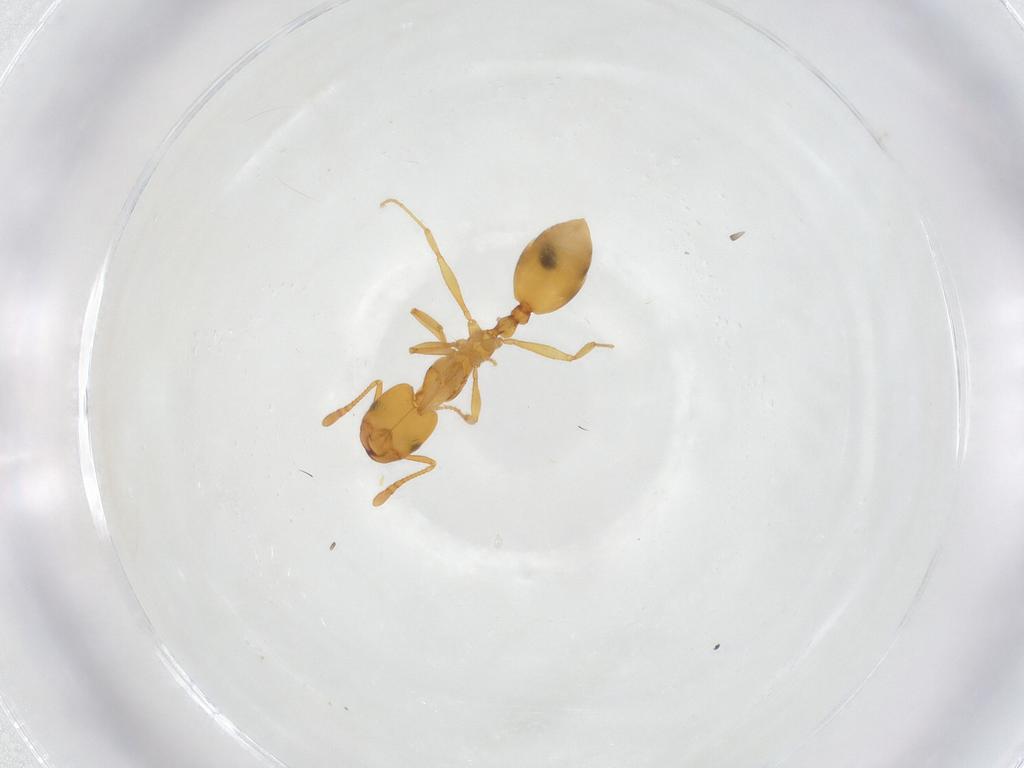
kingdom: Animalia
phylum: Arthropoda
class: Insecta
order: Hymenoptera
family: Formicidae
